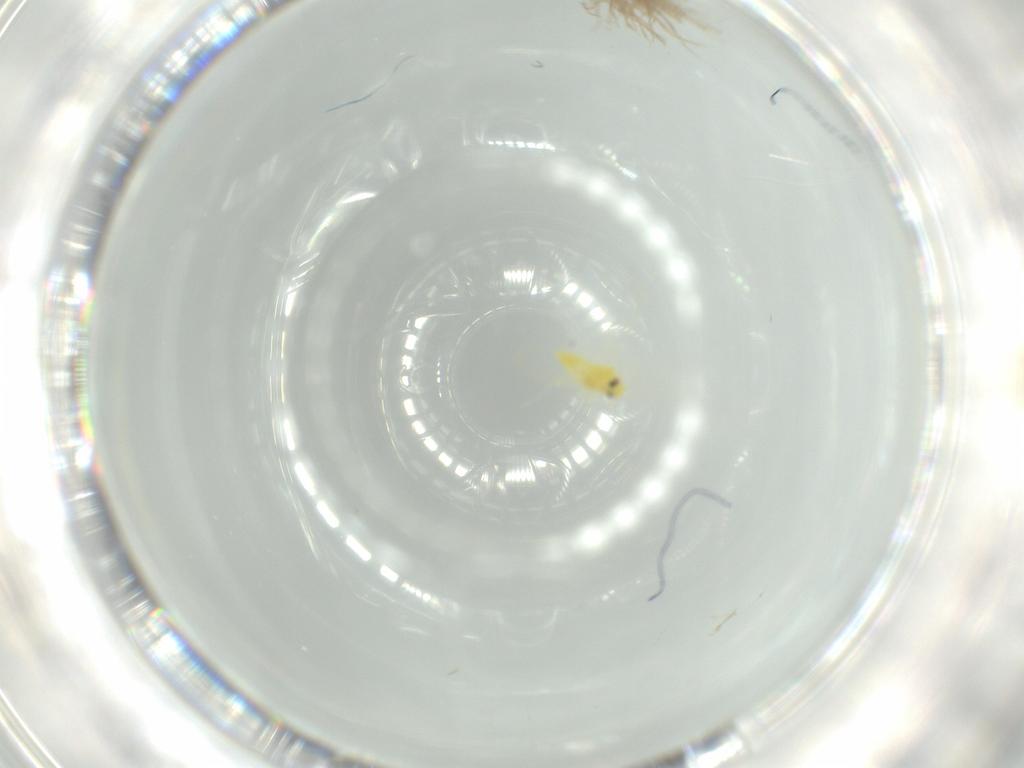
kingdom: Animalia
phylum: Arthropoda
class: Insecta
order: Hemiptera
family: Aleyrodidae
